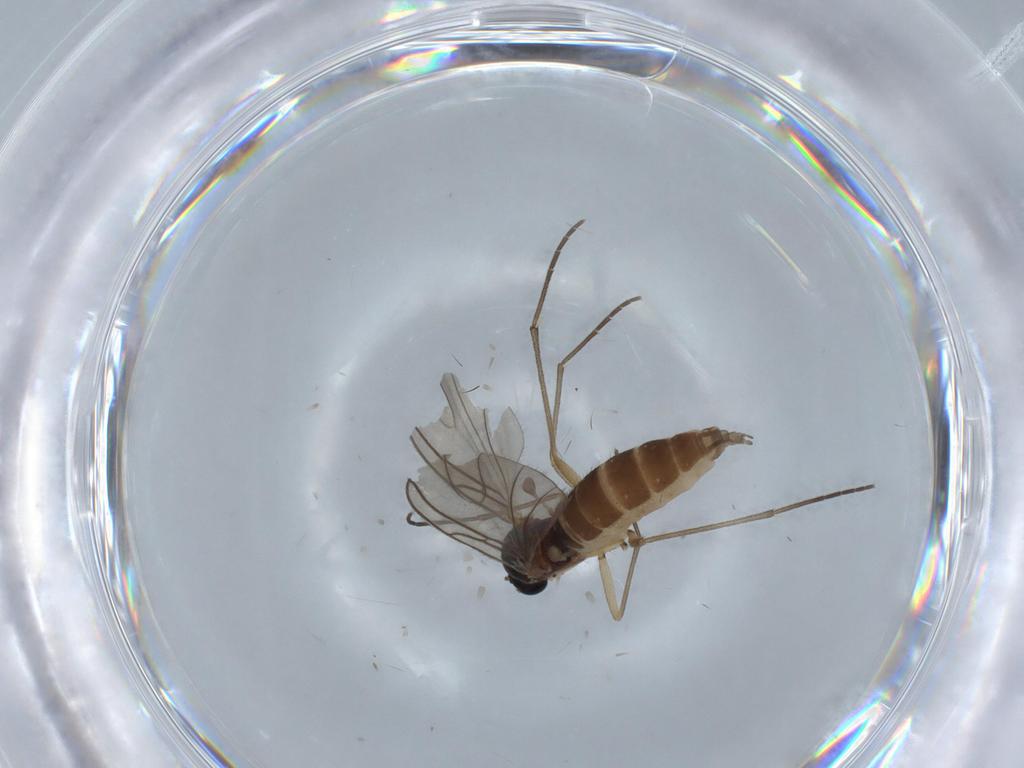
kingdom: Animalia
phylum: Arthropoda
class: Insecta
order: Diptera
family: Sciaridae
